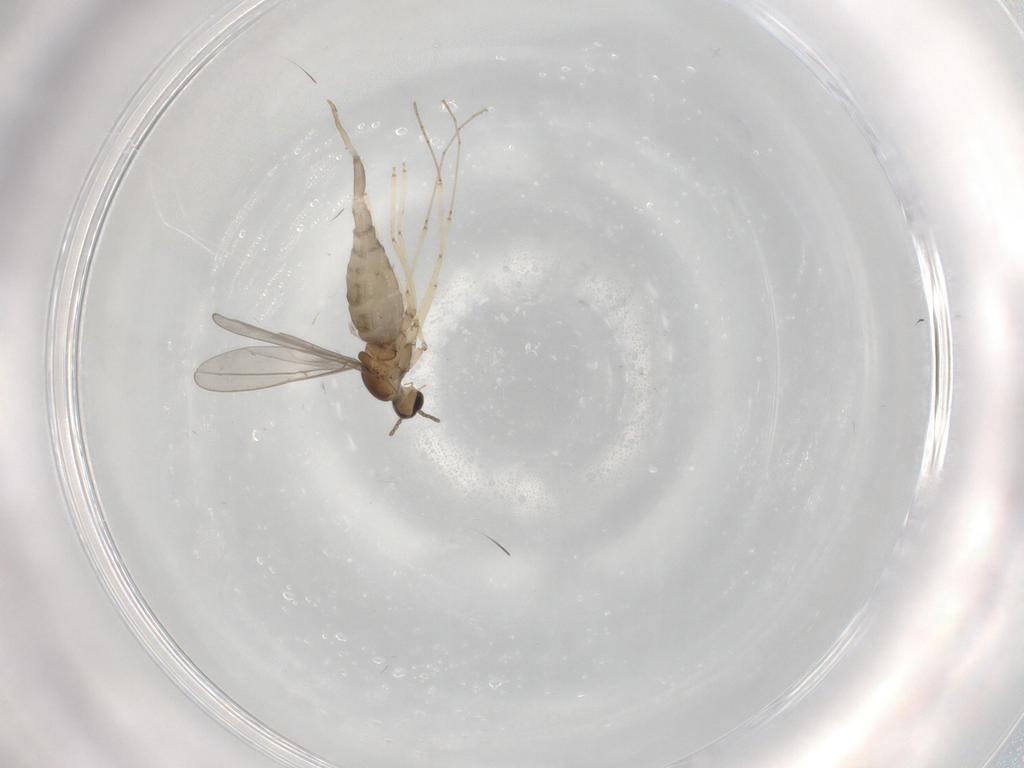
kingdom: Animalia
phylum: Arthropoda
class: Insecta
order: Diptera
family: Cecidomyiidae
